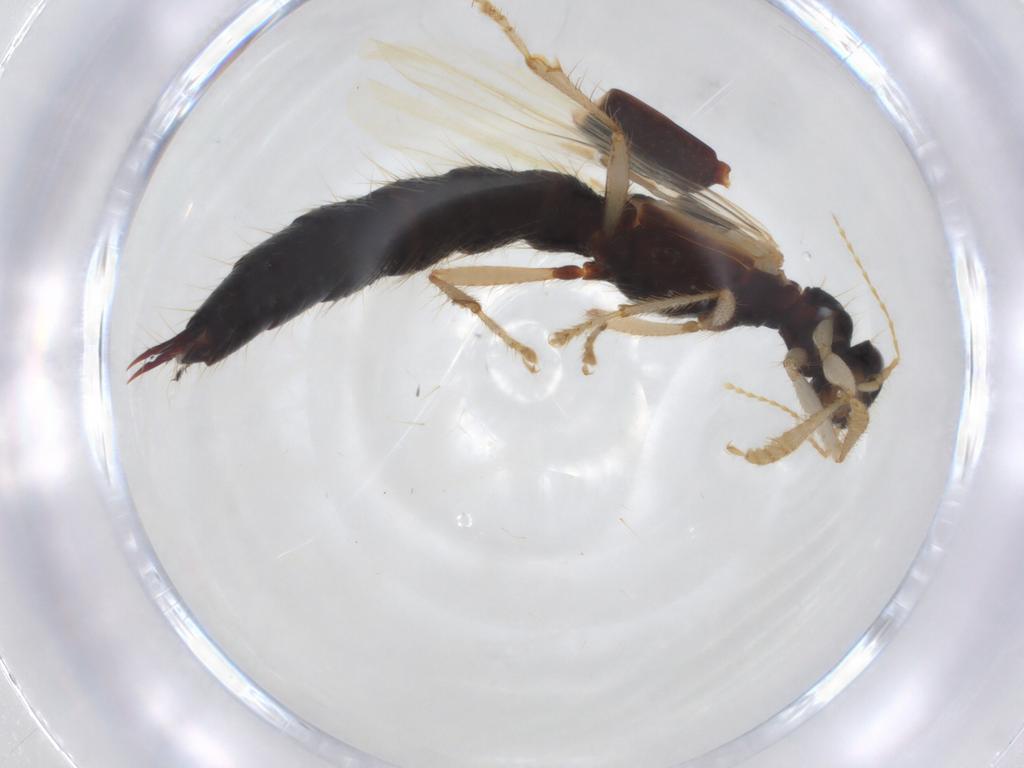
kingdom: Animalia
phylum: Arthropoda
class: Insecta
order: Coleoptera
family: Staphylinidae
